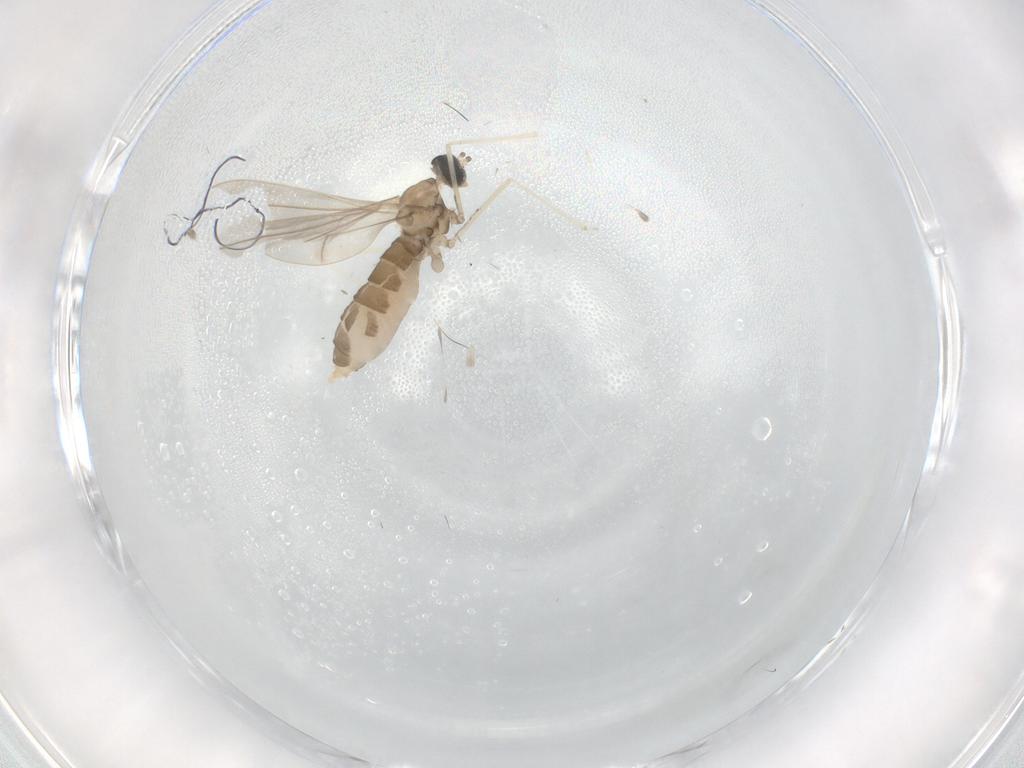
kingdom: Animalia
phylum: Arthropoda
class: Insecta
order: Diptera
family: Cecidomyiidae
